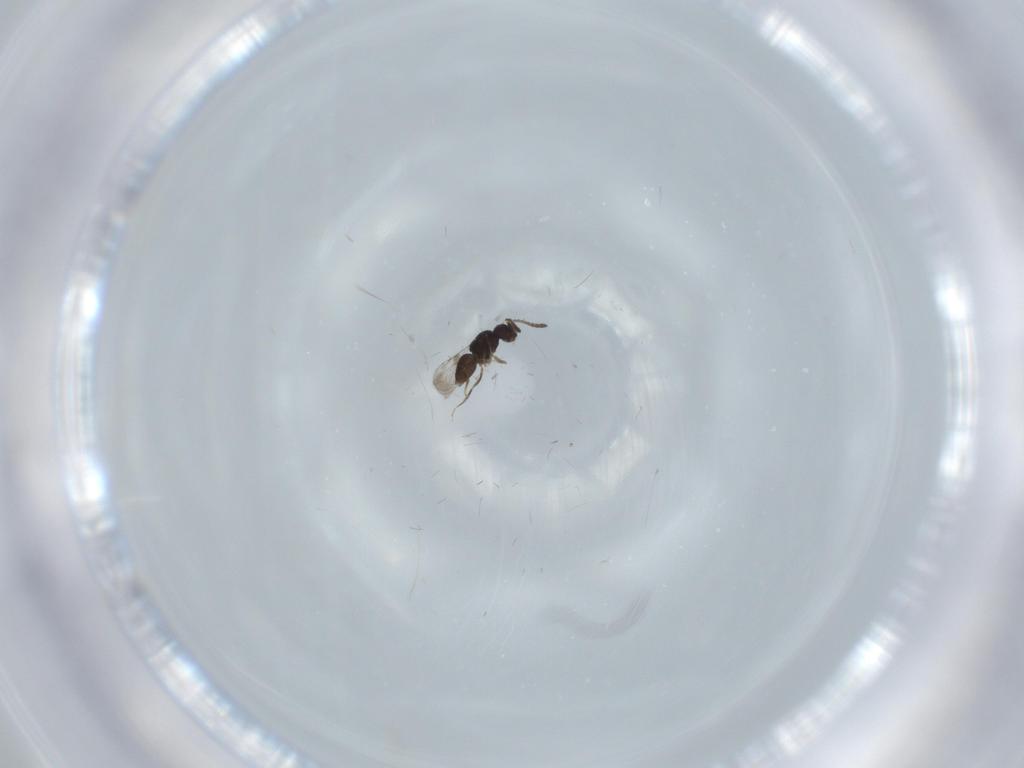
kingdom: Animalia
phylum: Arthropoda
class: Insecta
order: Hymenoptera
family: Ceraphronidae
